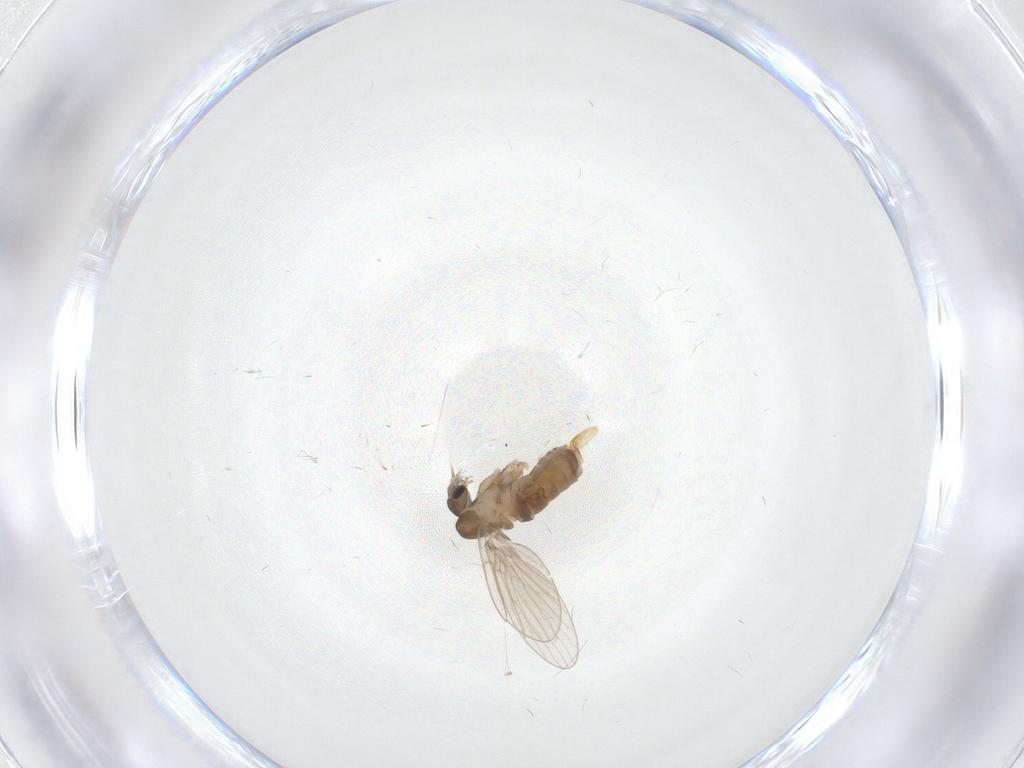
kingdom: Animalia
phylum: Arthropoda
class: Insecta
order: Diptera
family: Psychodidae
